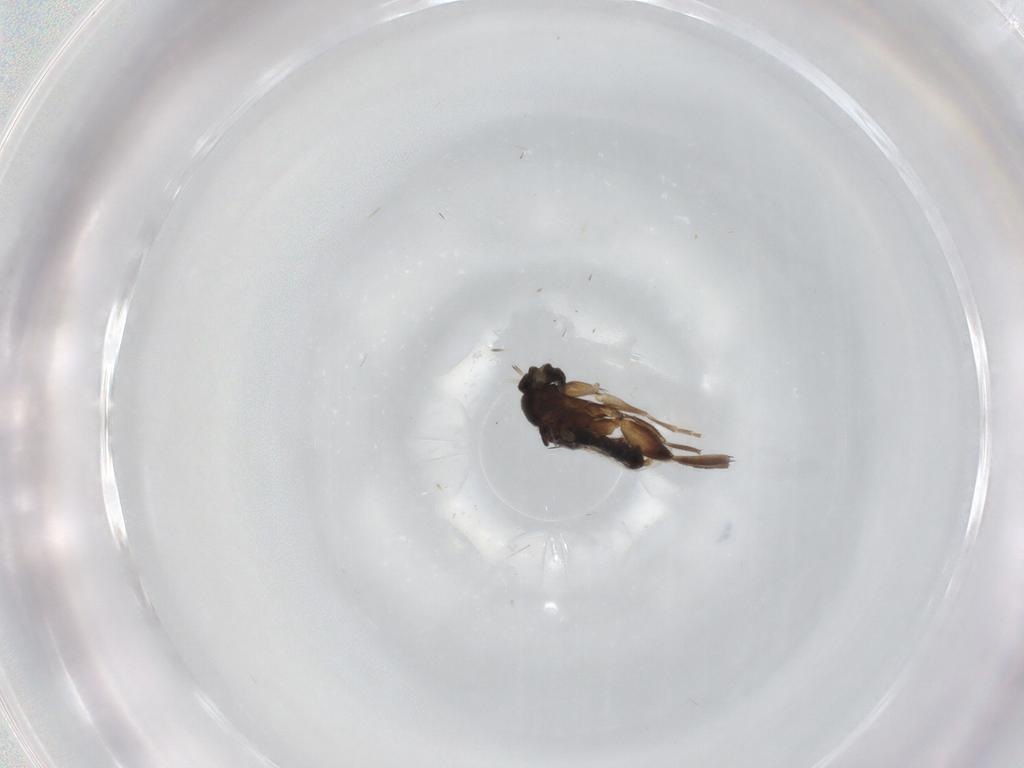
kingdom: Animalia
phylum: Arthropoda
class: Insecta
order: Diptera
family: Phoridae
